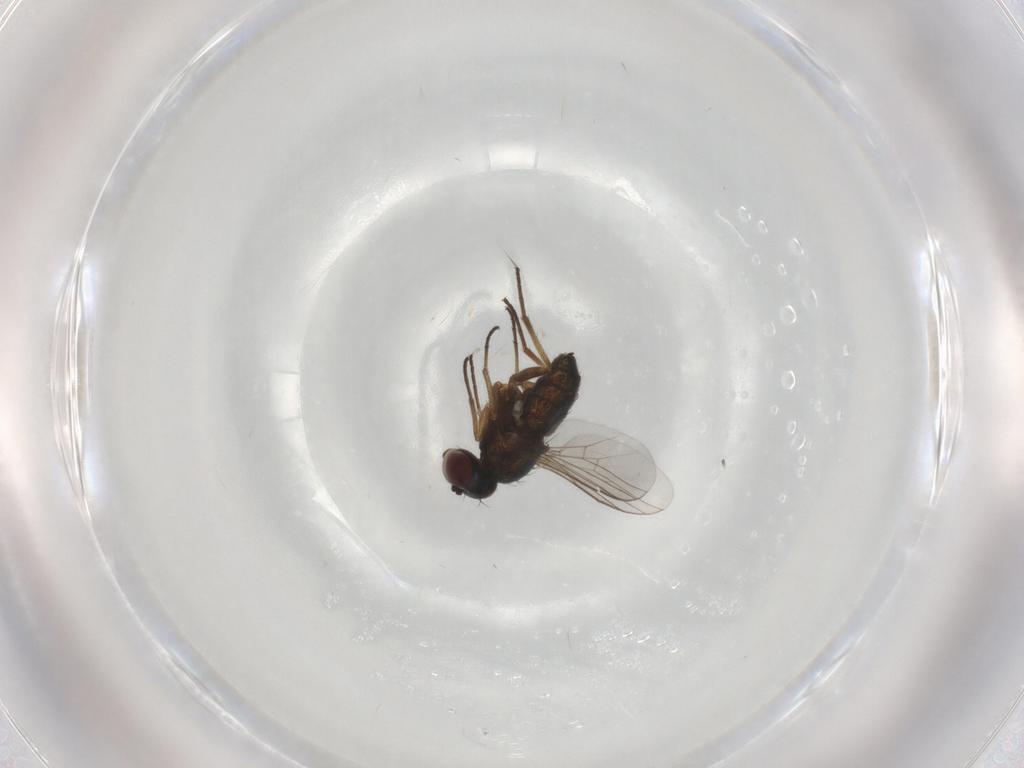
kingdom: Animalia
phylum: Arthropoda
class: Insecta
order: Diptera
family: Dolichopodidae
